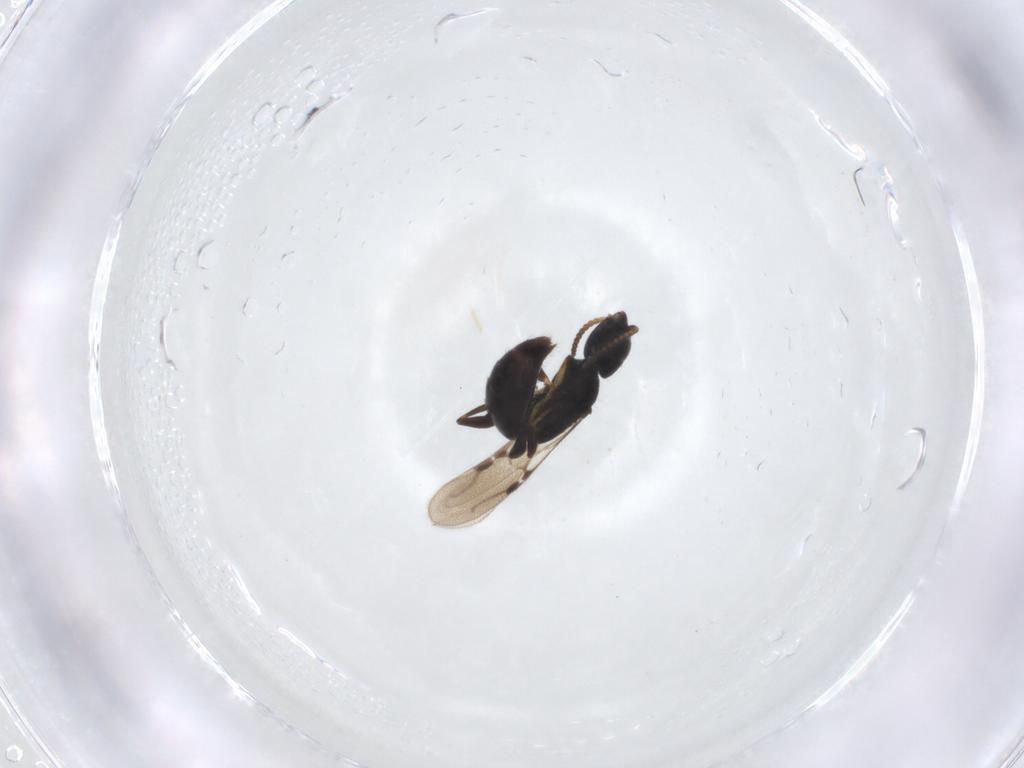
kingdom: Animalia
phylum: Arthropoda
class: Insecta
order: Hymenoptera
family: Bethylidae
